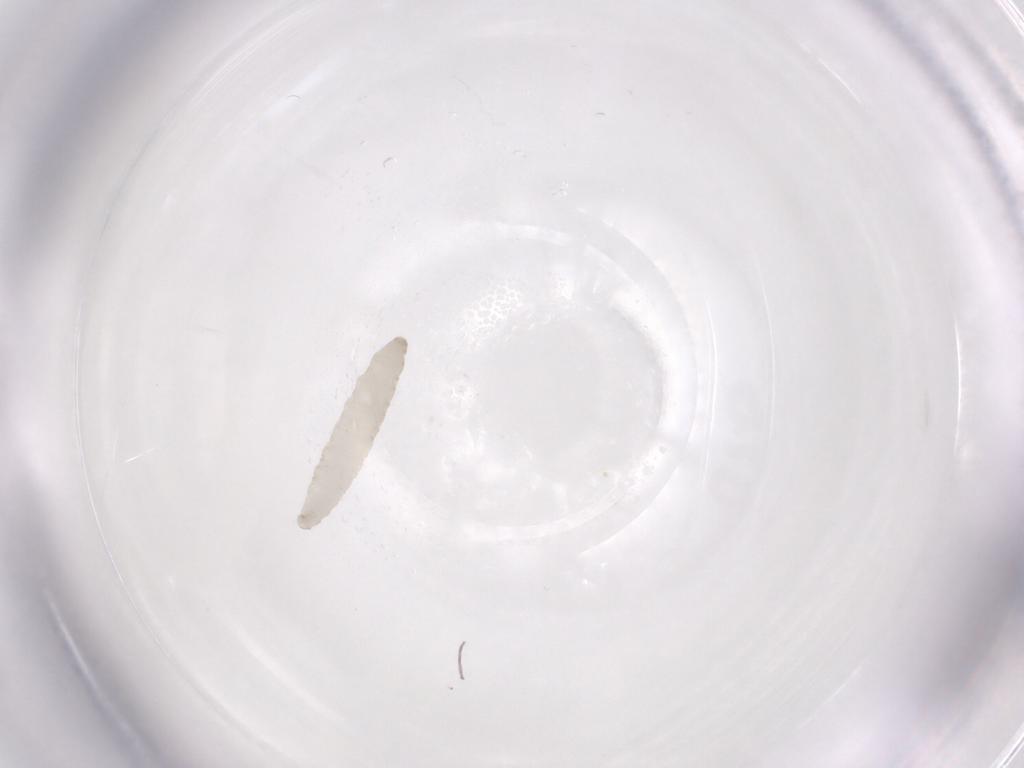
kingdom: Animalia
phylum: Arthropoda
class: Insecta
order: Diptera
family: Phoridae
